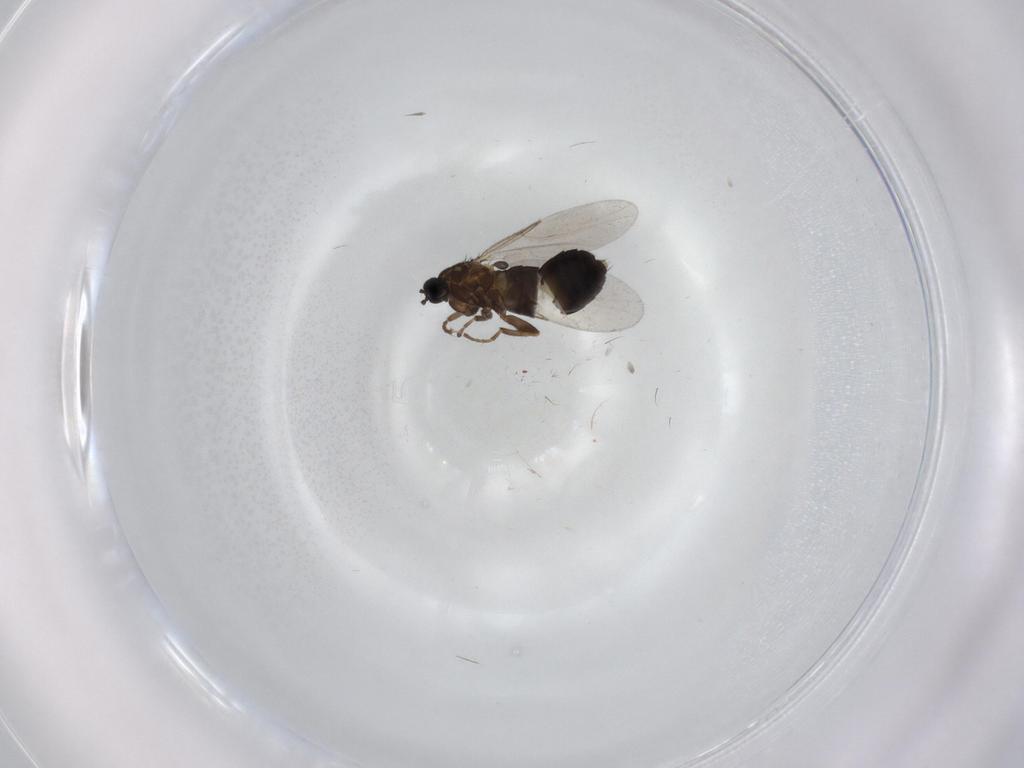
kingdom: Animalia
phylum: Arthropoda
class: Insecta
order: Diptera
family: Scatopsidae
